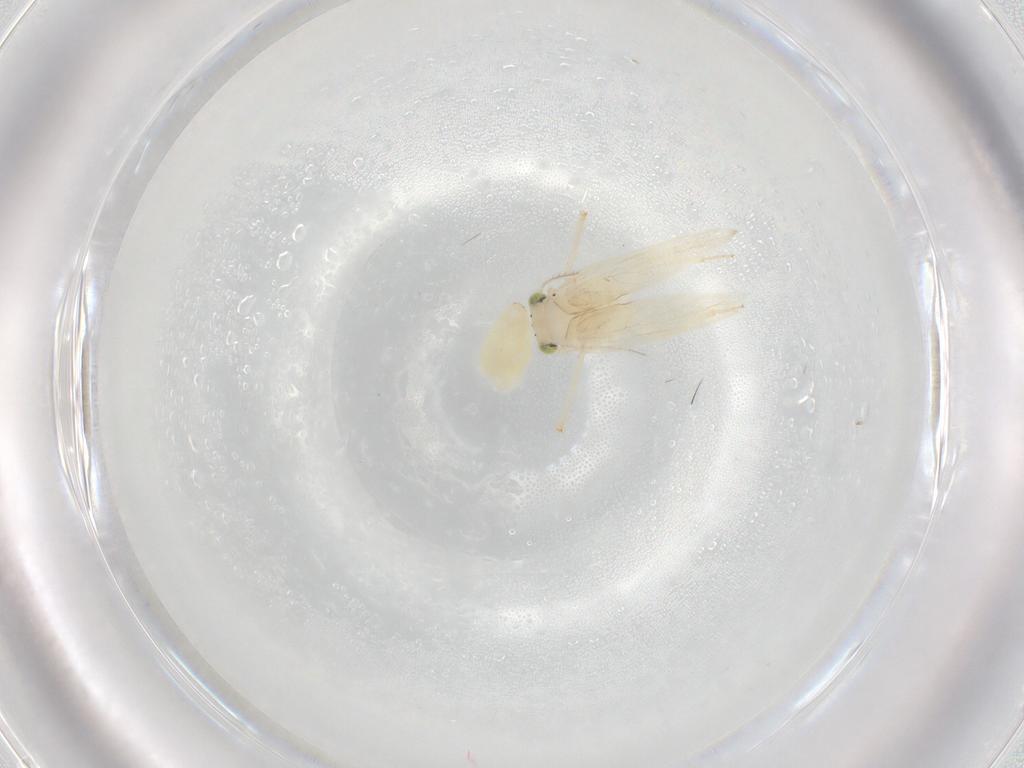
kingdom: Animalia
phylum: Arthropoda
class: Insecta
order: Psocodea
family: Lepidopsocidae
